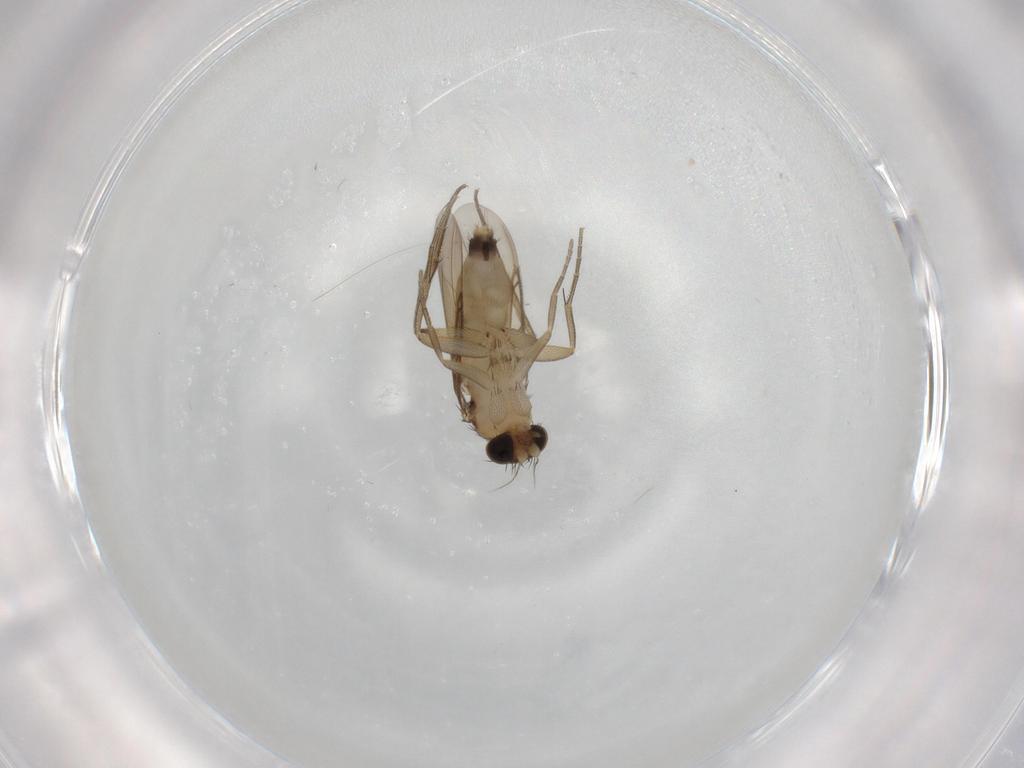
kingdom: Animalia
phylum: Arthropoda
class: Insecta
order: Diptera
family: Phoridae
